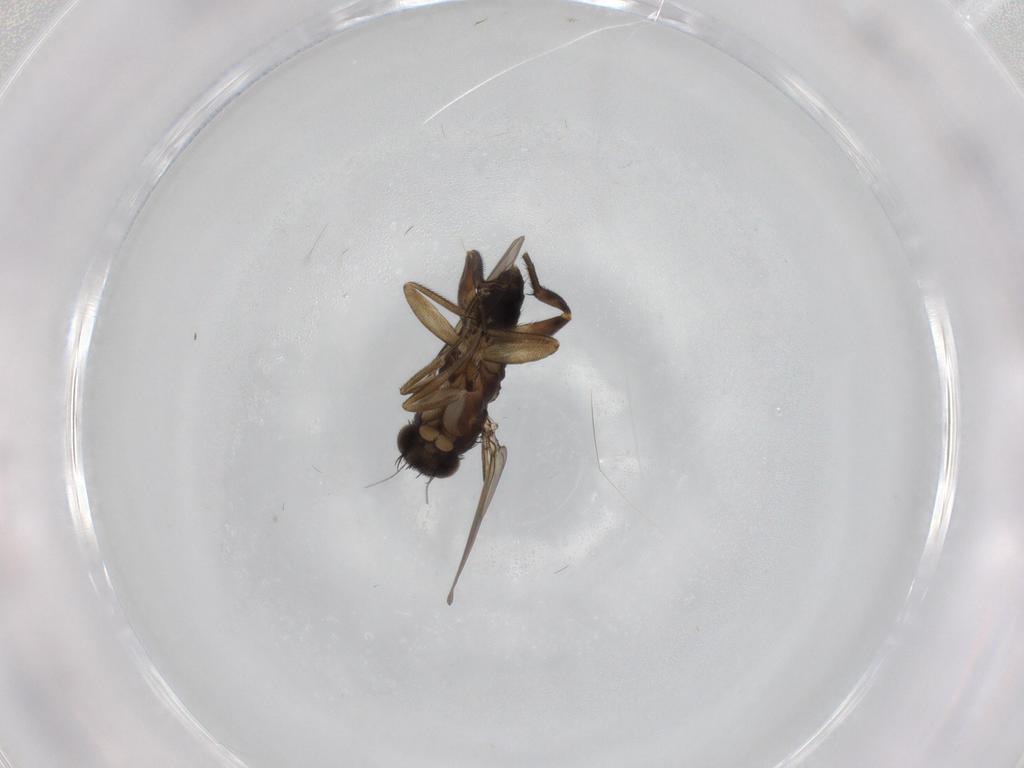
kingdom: Animalia
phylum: Arthropoda
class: Insecta
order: Diptera
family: Phoridae
